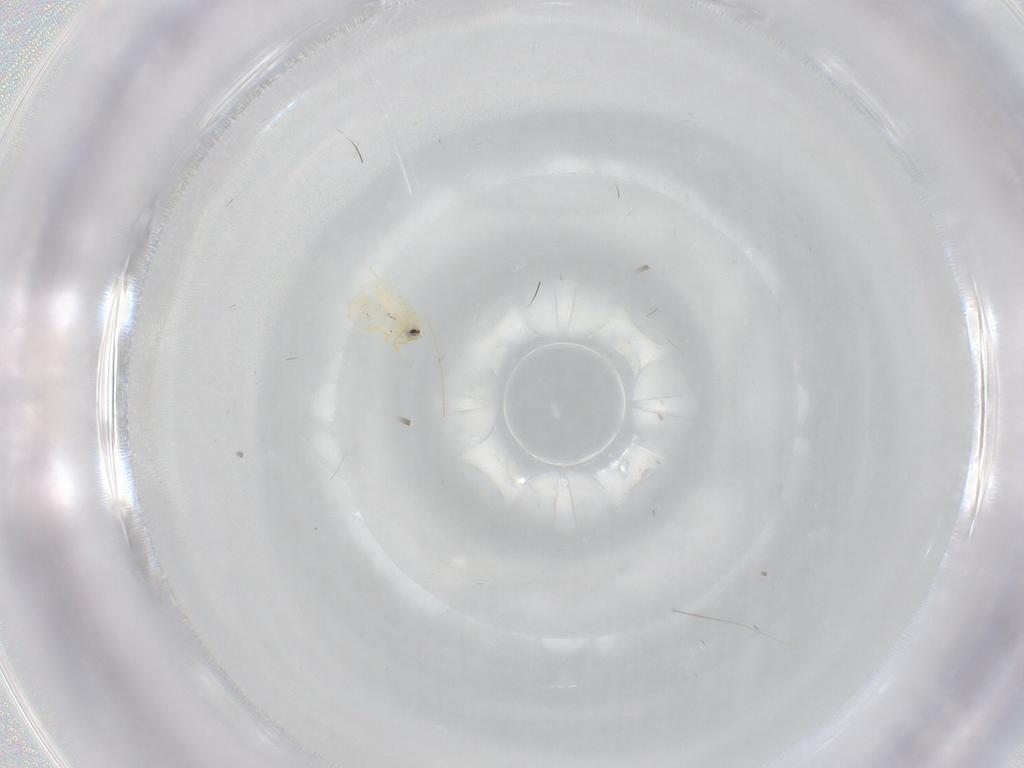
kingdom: Animalia
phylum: Arthropoda
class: Insecta
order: Hemiptera
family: Aleyrodidae
